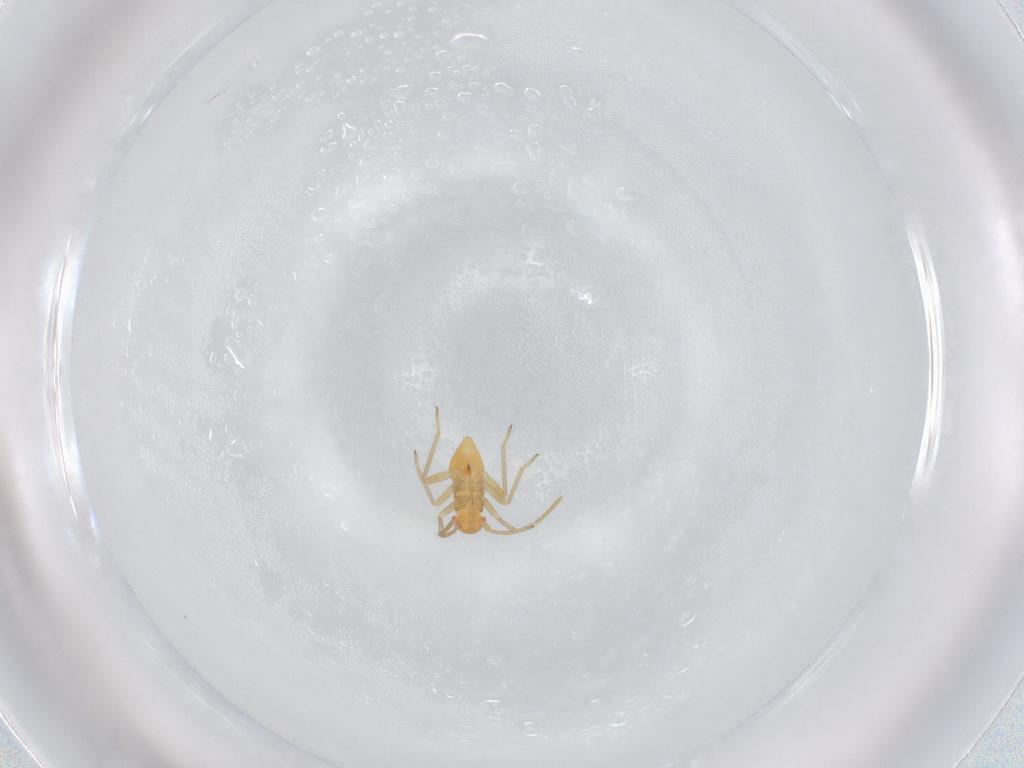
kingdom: Animalia
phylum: Arthropoda
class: Insecta
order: Hemiptera
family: Miridae
